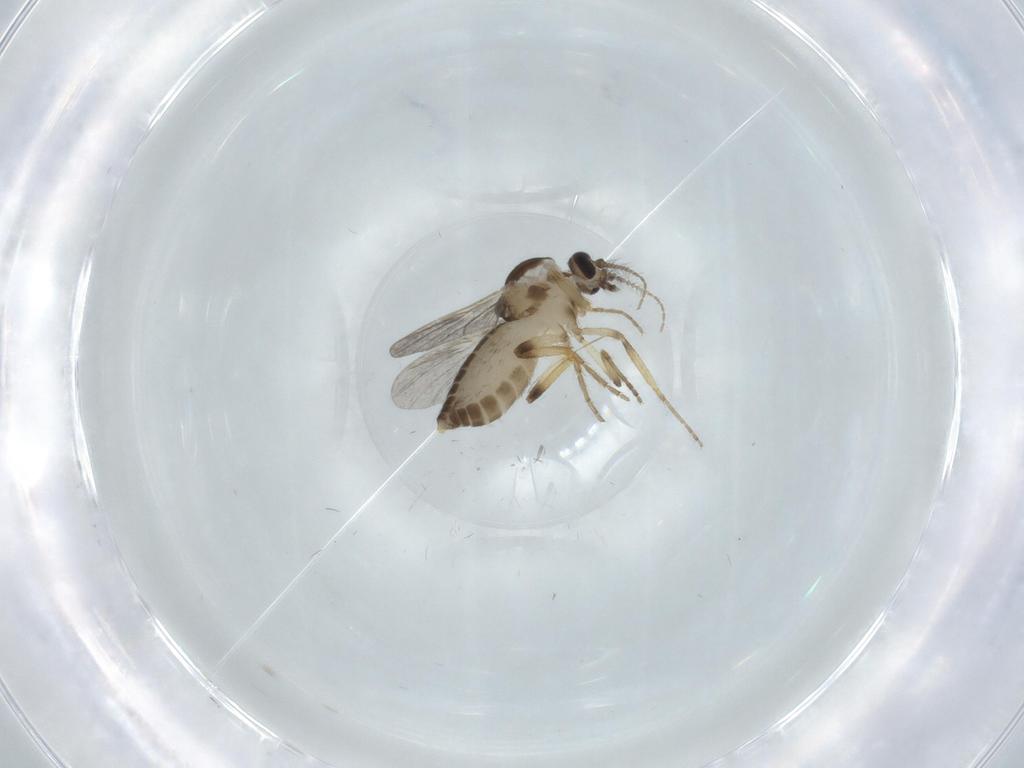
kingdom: Animalia
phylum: Arthropoda
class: Insecta
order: Diptera
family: Ceratopogonidae
